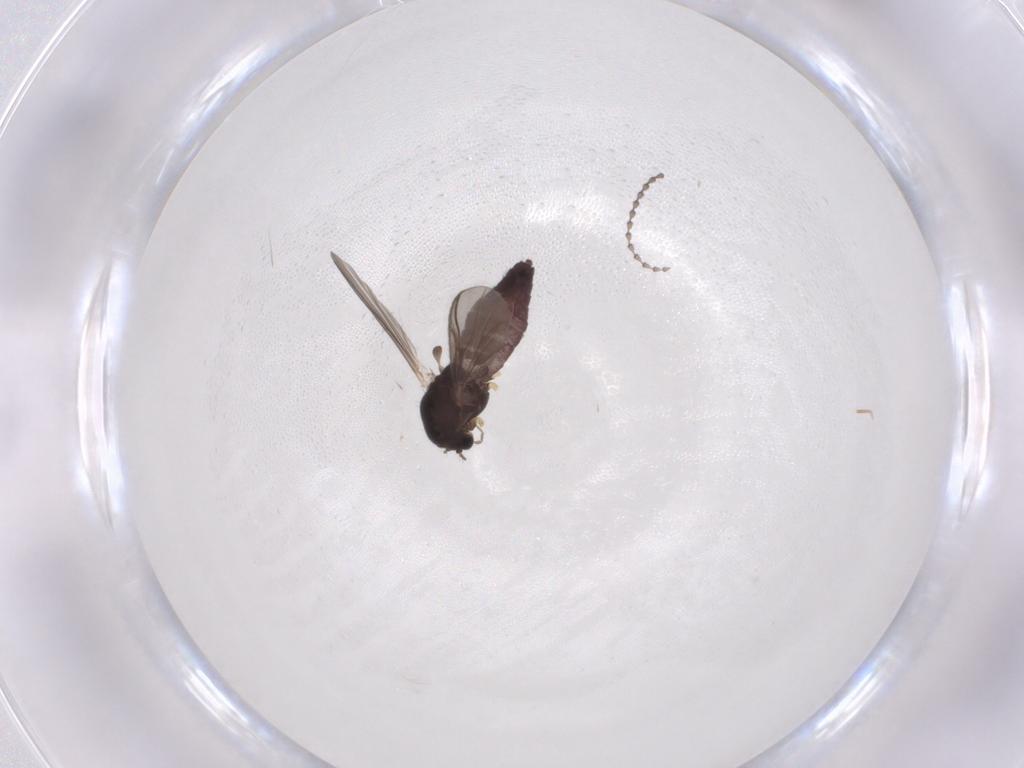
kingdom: Animalia
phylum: Arthropoda
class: Insecta
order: Diptera
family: Chironomidae
